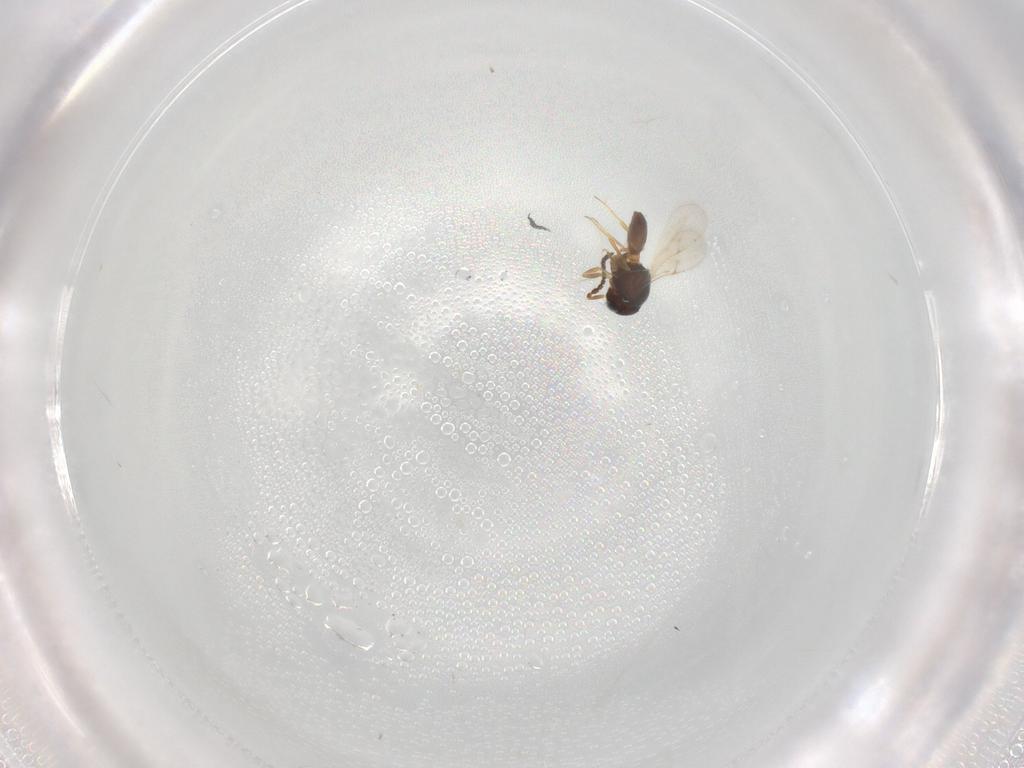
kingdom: Animalia
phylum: Arthropoda
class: Insecta
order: Hymenoptera
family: Scelionidae
